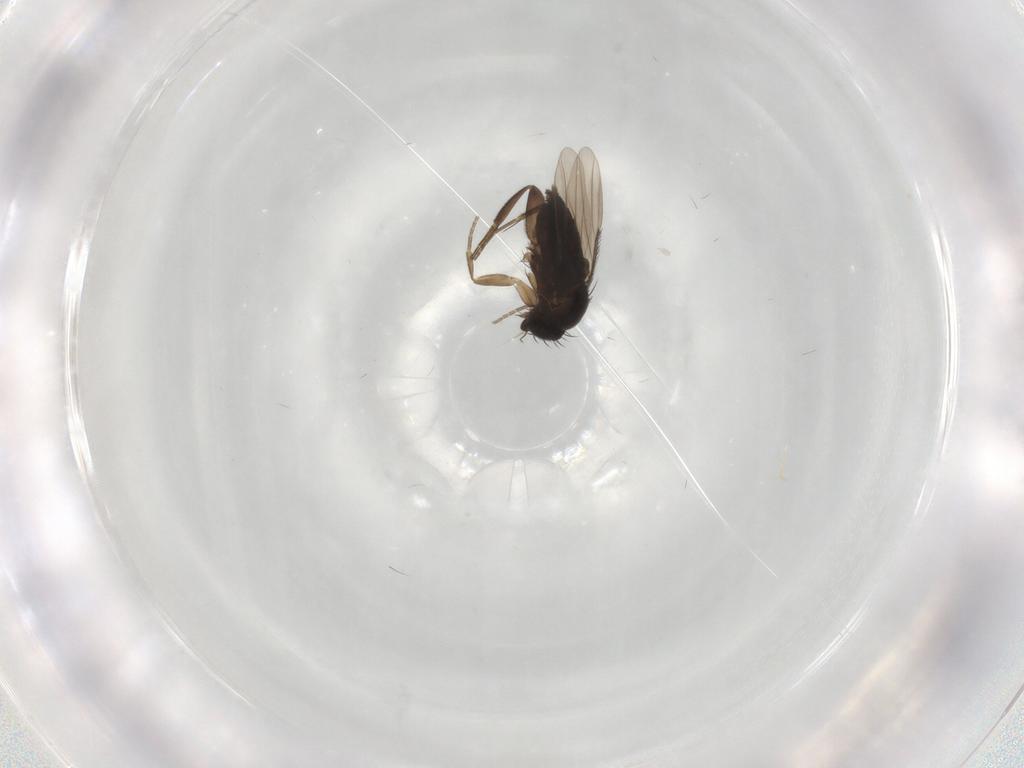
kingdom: Animalia
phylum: Arthropoda
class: Insecta
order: Diptera
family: Phoridae
